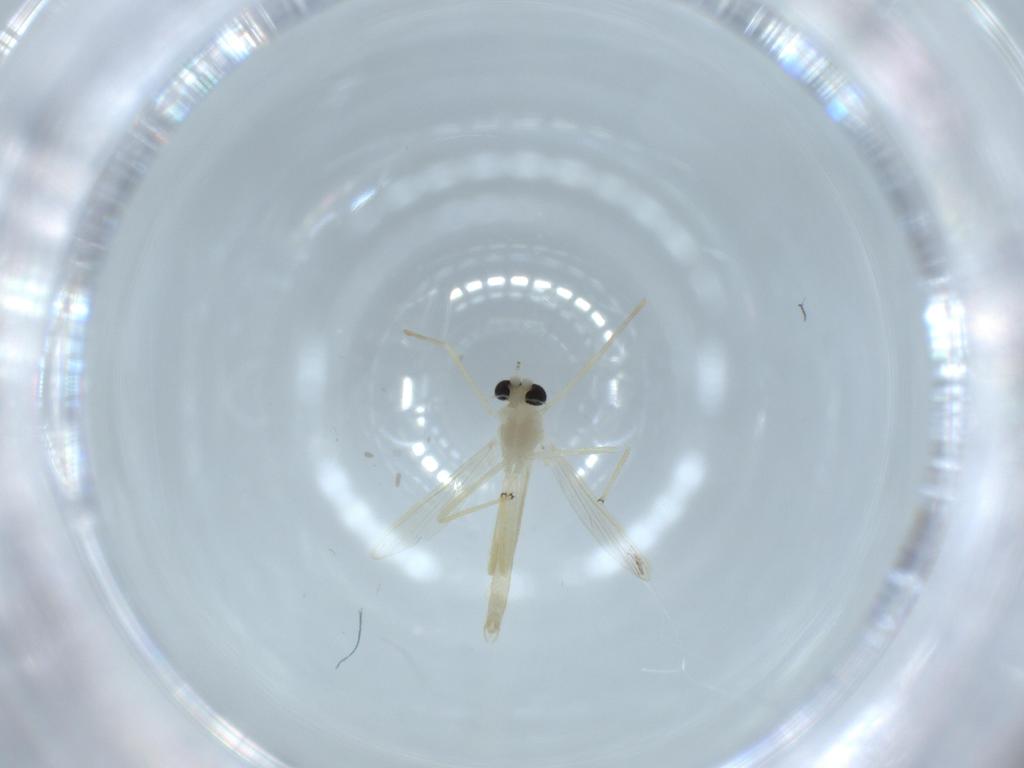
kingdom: Animalia
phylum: Arthropoda
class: Insecta
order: Diptera
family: Chironomidae
